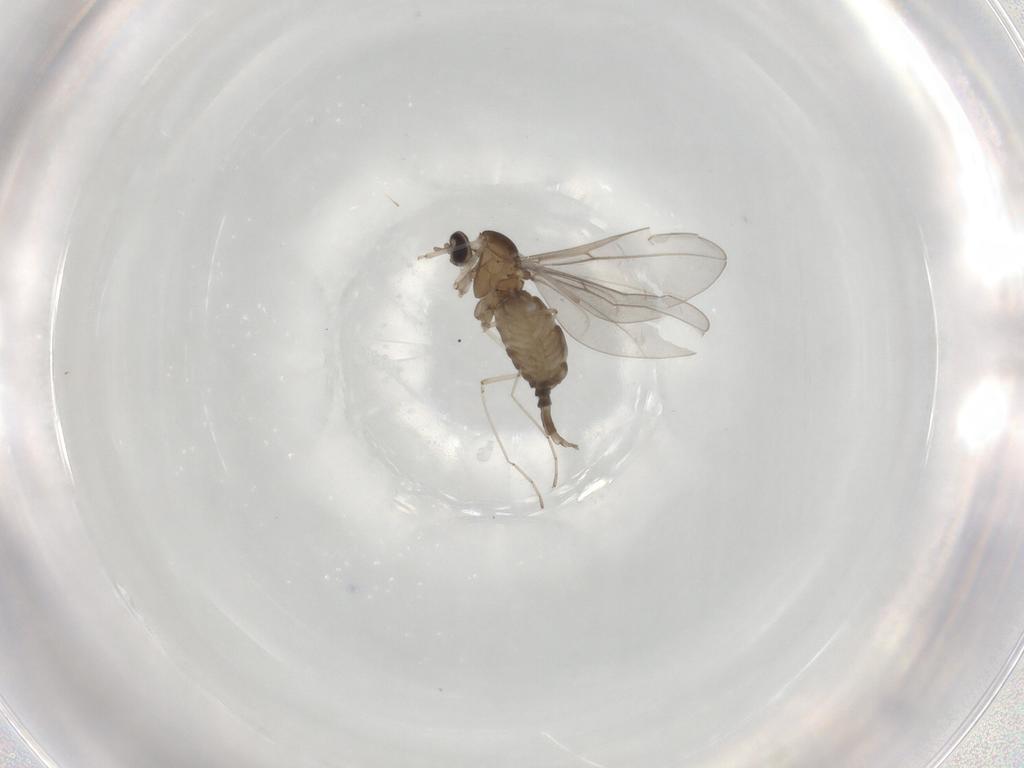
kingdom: Animalia
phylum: Arthropoda
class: Insecta
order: Diptera
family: Cecidomyiidae
